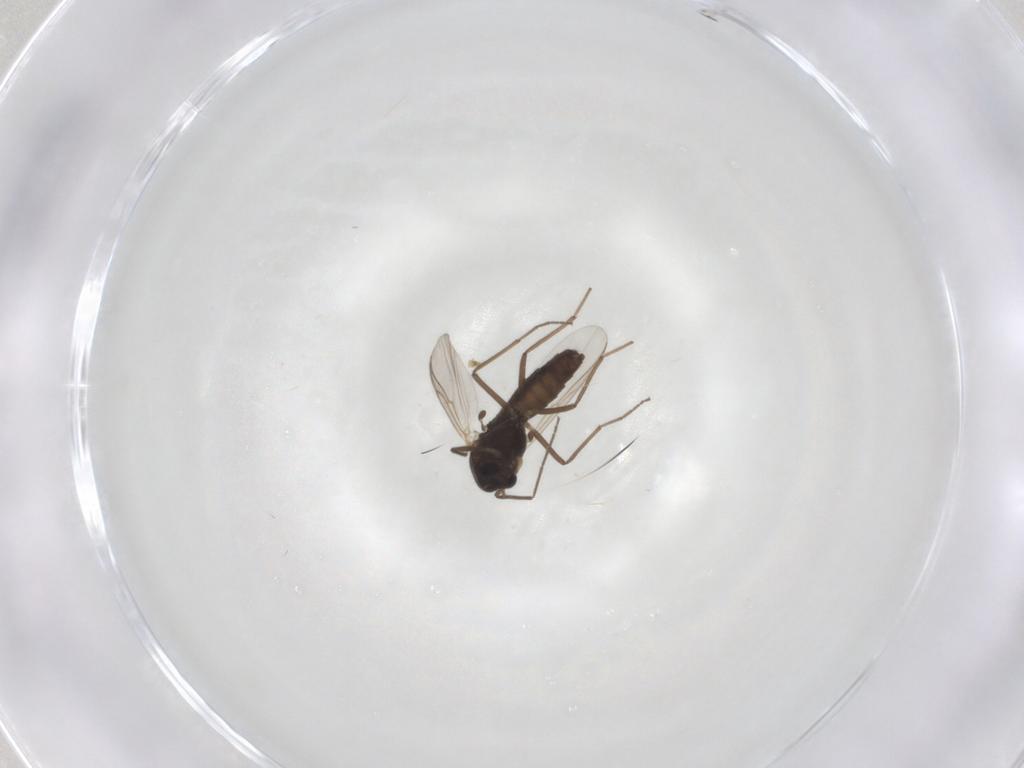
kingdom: Animalia
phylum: Arthropoda
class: Insecta
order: Diptera
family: Chironomidae
